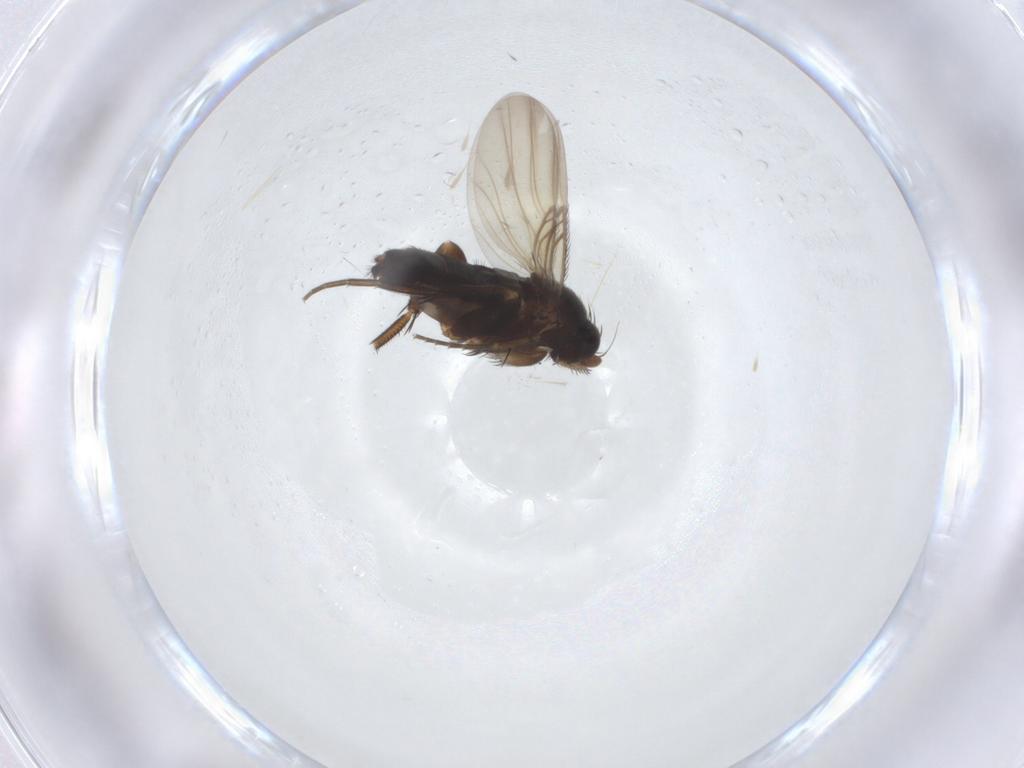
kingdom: Animalia
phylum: Arthropoda
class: Insecta
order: Diptera
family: Phoridae
